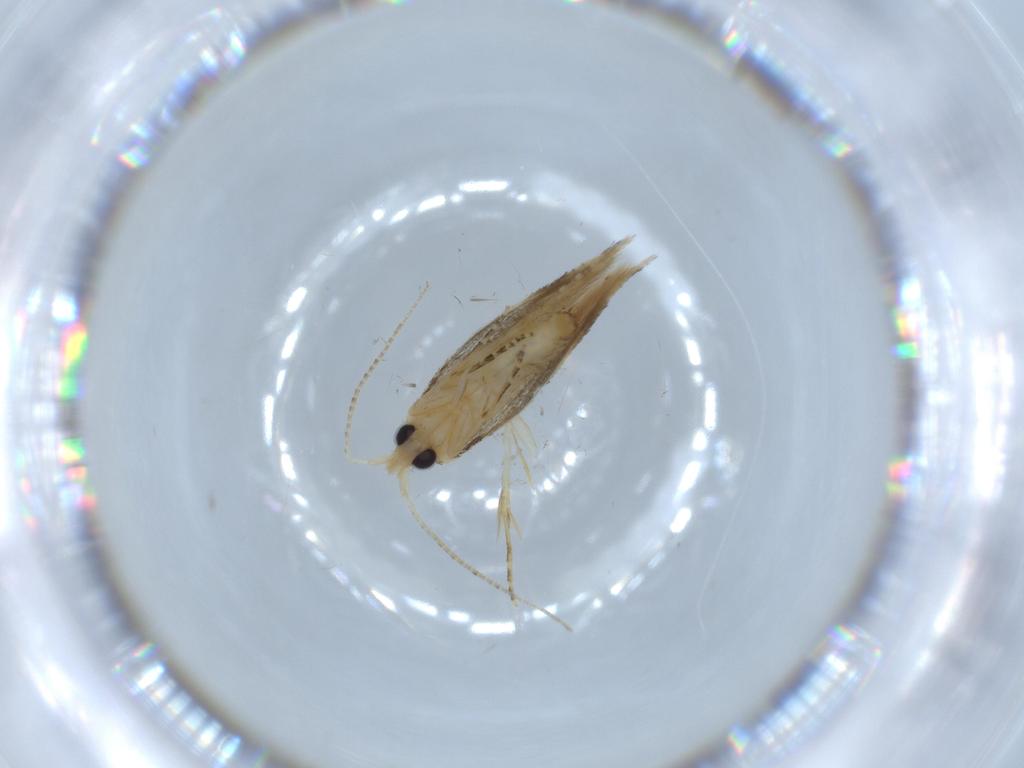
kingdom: Animalia
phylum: Arthropoda
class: Insecta
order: Lepidoptera
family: Bucculatricidae
